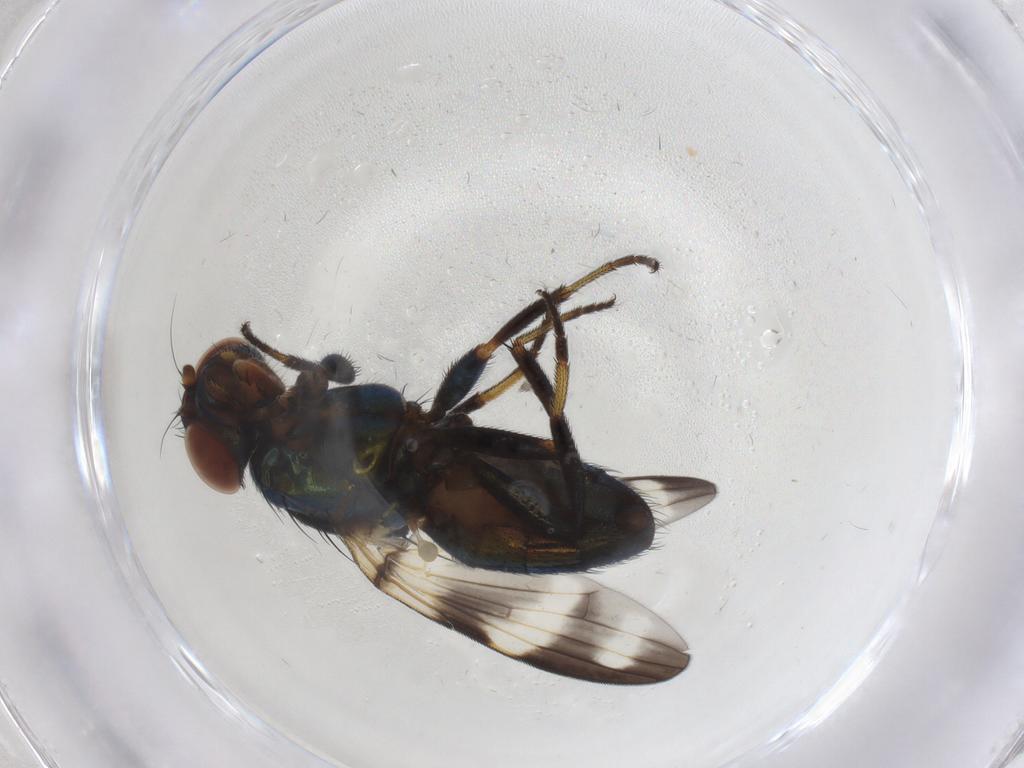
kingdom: Animalia
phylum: Arthropoda
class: Insecta
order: Diptera
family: Ulidiidae
